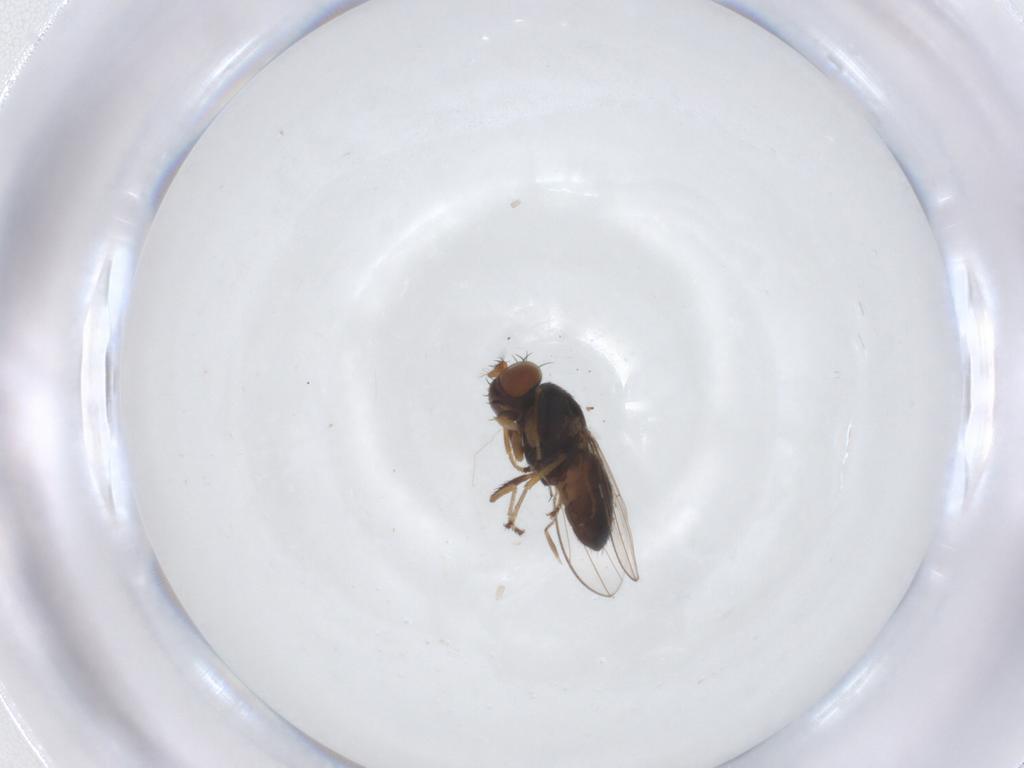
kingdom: Animalia
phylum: Arthropoda
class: Insecta
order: Diptera
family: Ephydridae
